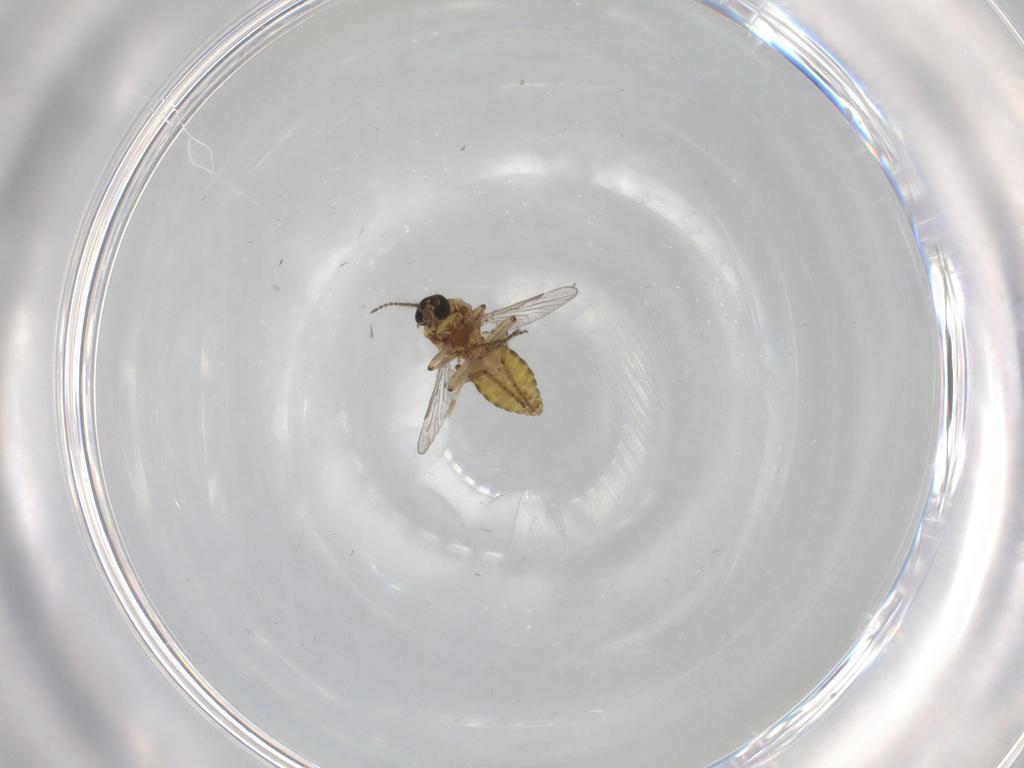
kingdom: Animalia
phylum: Arthropoda
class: Insecta
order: Diptera
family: Ceratopogonidae
